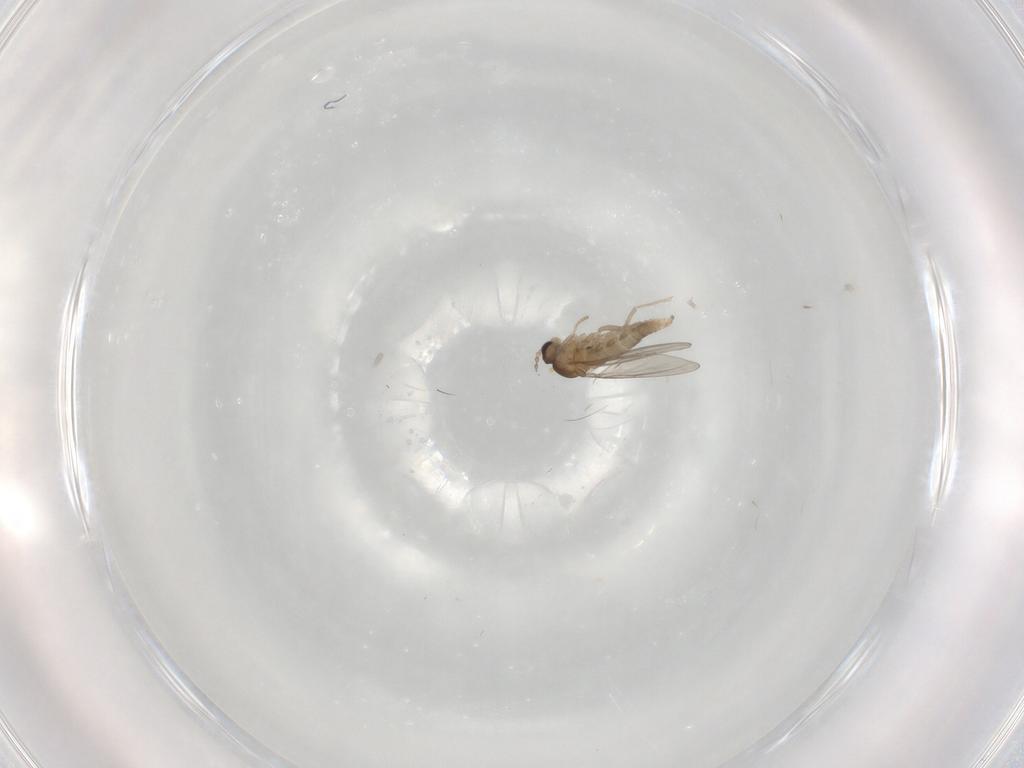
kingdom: Animalia
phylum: Arthropoda
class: Insecta
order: Diptera
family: Cecidomyiidae
